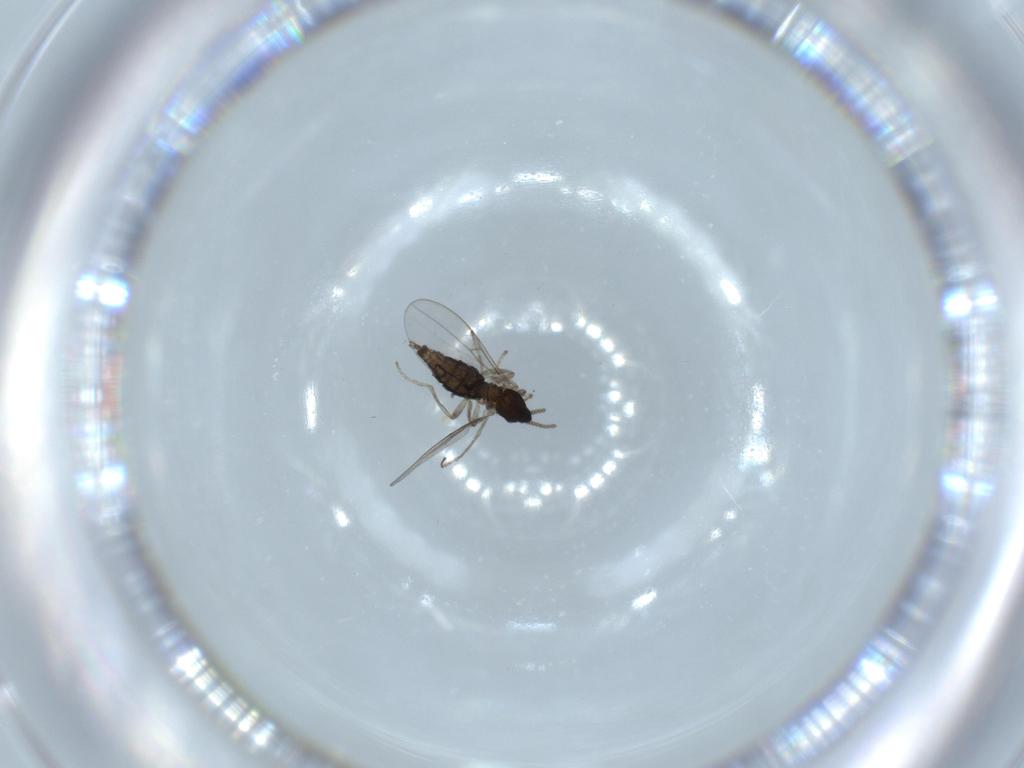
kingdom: Animalia
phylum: Arthropoda
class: Insecta
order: Diptera
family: Cecidomyiidae
